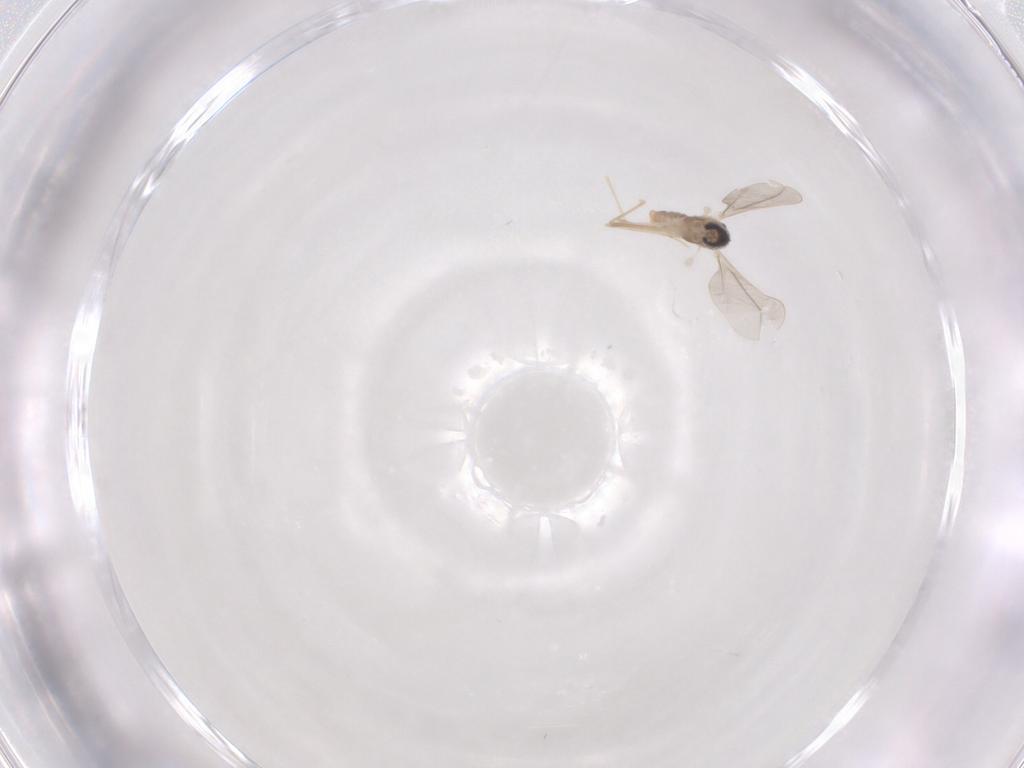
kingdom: Animalia
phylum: Arthropoda
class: Insecta
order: Diptera
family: Cecidomyiidae
